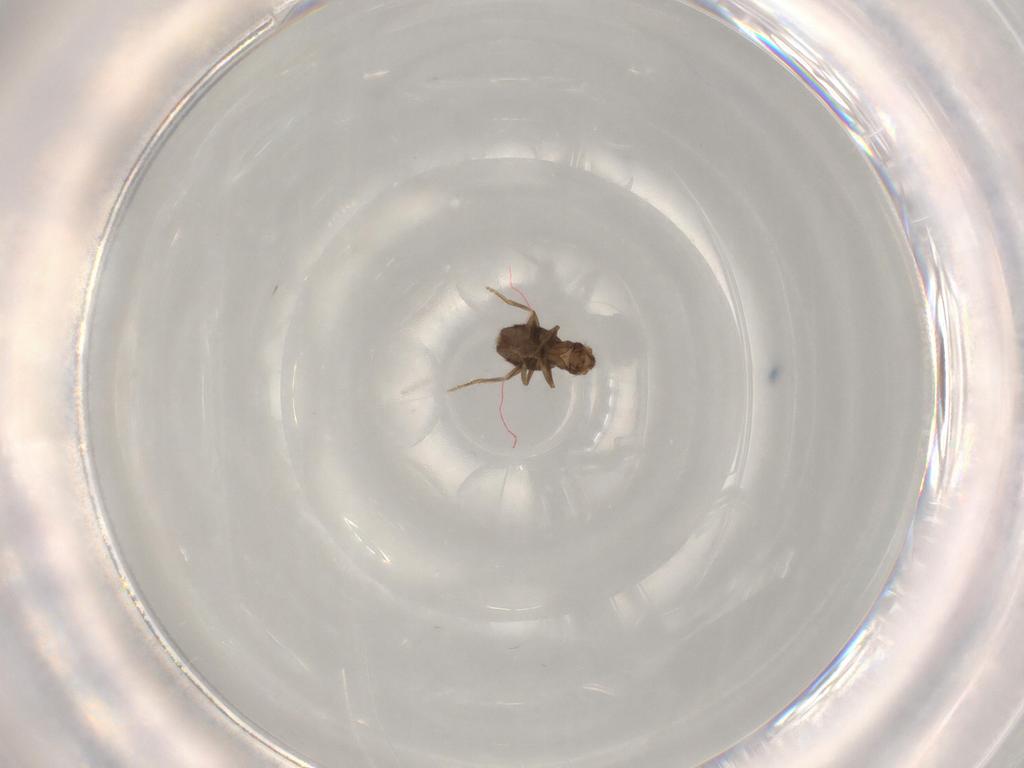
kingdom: Animalia
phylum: Arthropoda
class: Insecta
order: Diptera
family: Phoridae
